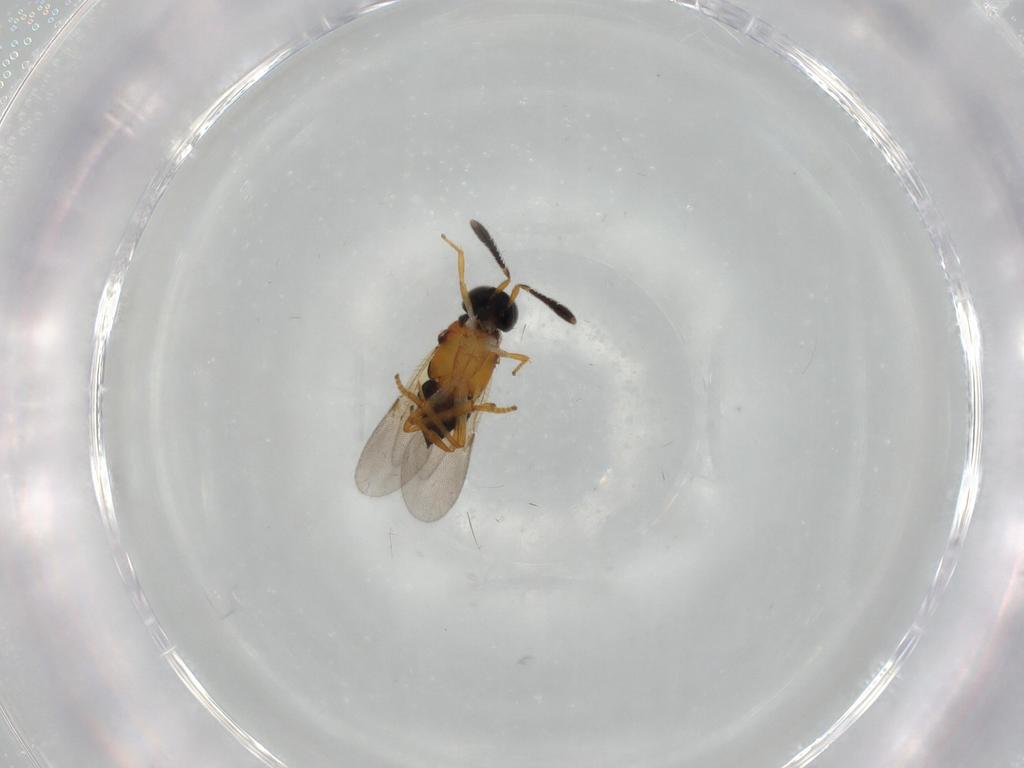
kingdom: Animalia
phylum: Arthropoda
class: Insecta
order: Hymenoptera
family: Encyrtidae
